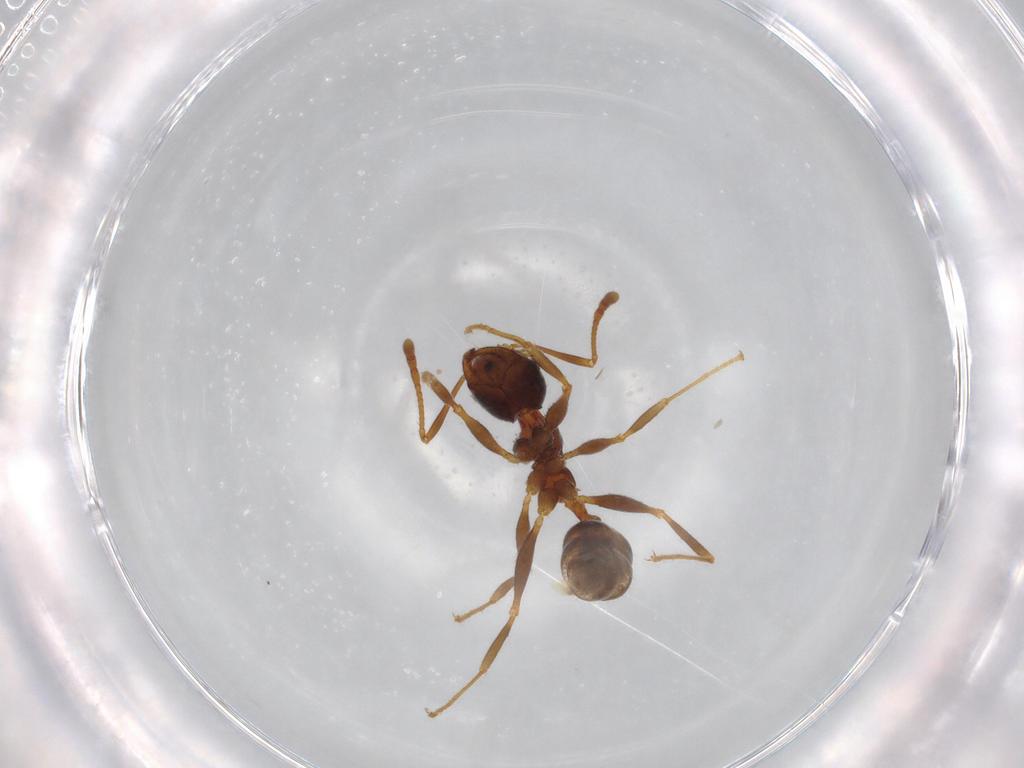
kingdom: Animalia
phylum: Arthropoda
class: Insecta
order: Hymenoptera
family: Formicidae
